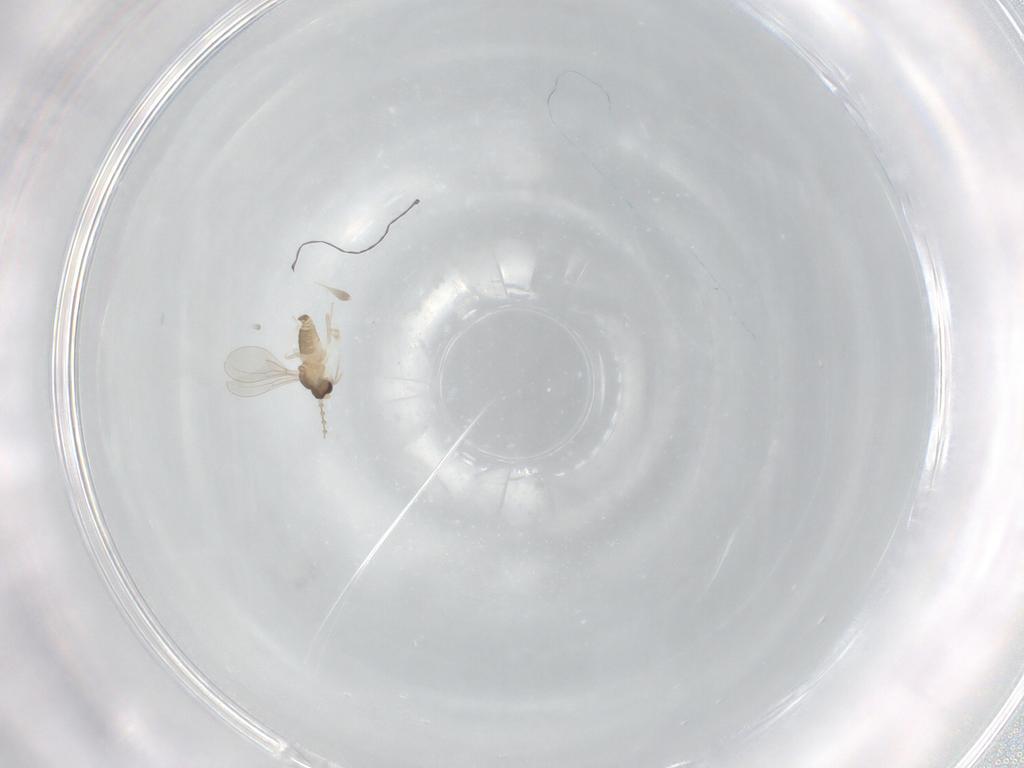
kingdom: Animalia
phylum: Arthropoda
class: Insecta
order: Diptera
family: Cecidomyiidae
